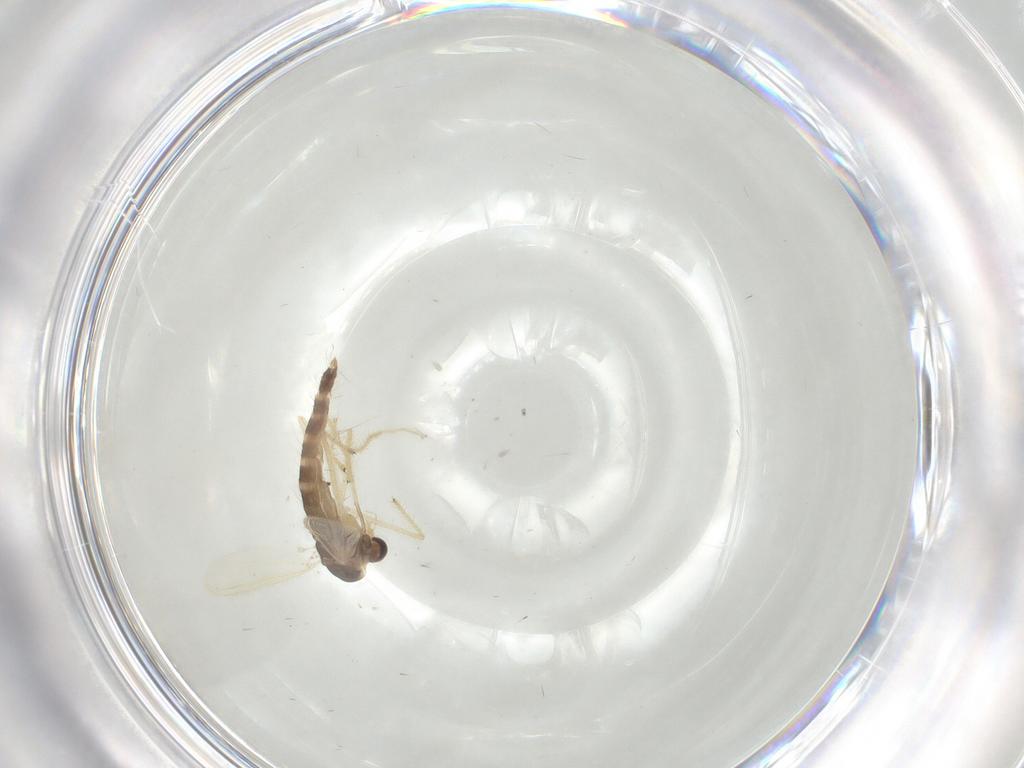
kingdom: Animalia
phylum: Arthropoda
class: Insecta
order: Diptera
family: Chironomidae
